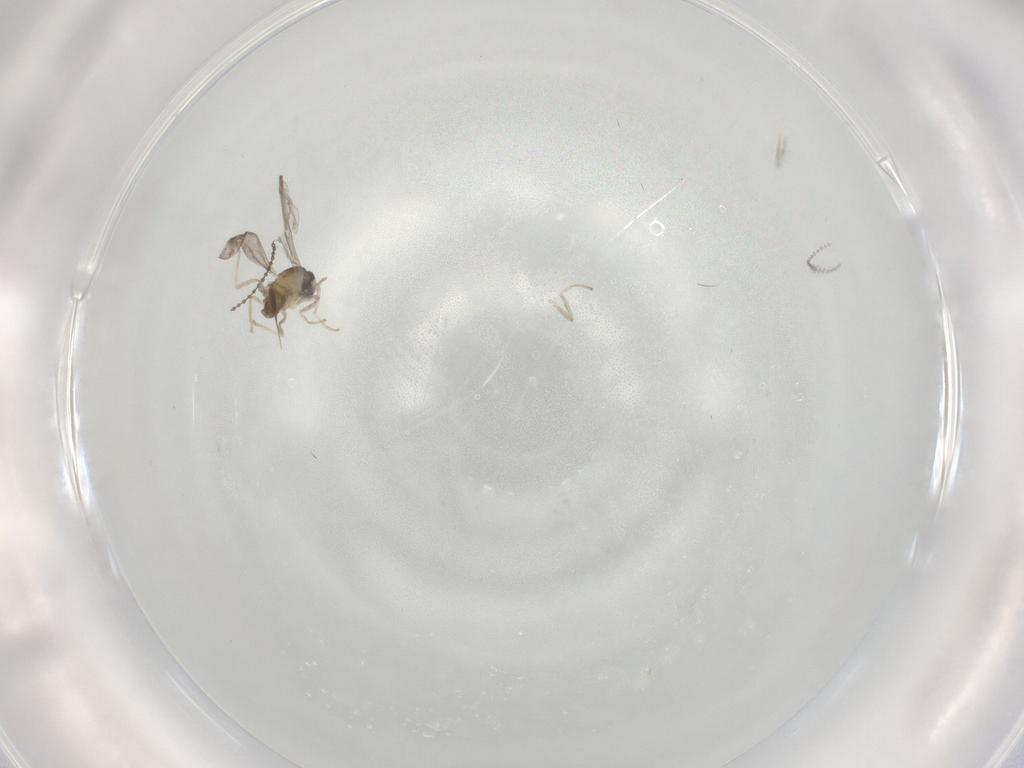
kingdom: Animalia
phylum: Arthropoda
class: Insecta
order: Diptera
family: Cecidomyiidae
